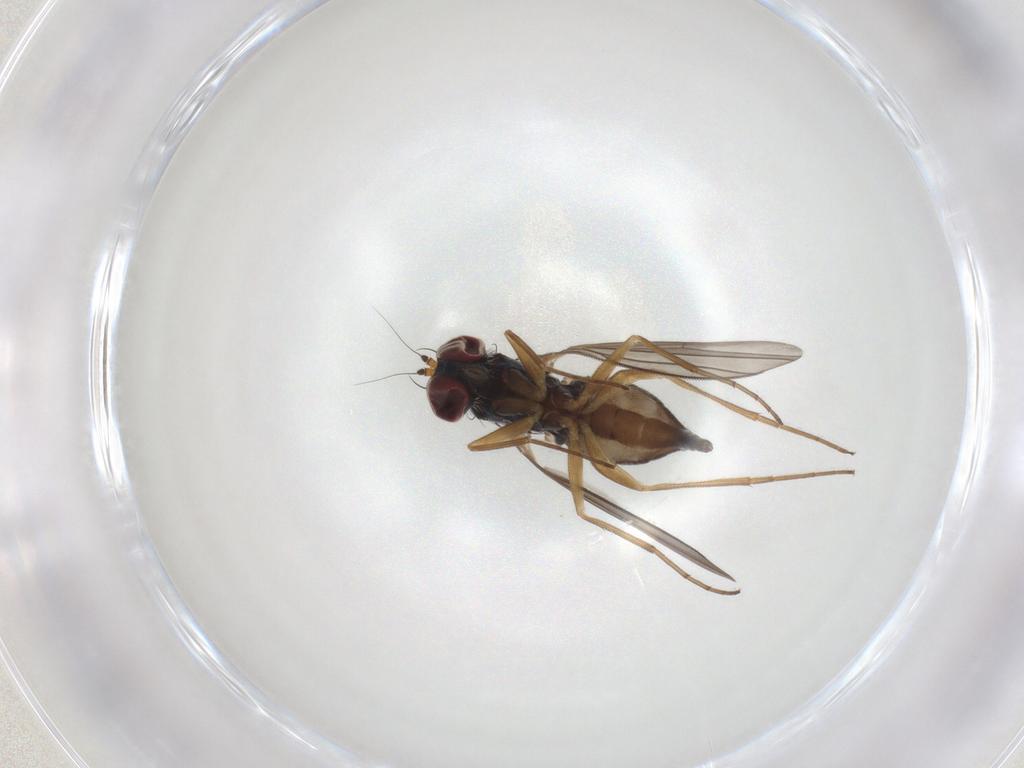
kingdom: Animalia
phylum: Arthropoda
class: Insecta
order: Diptera
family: Dolichopodidae
